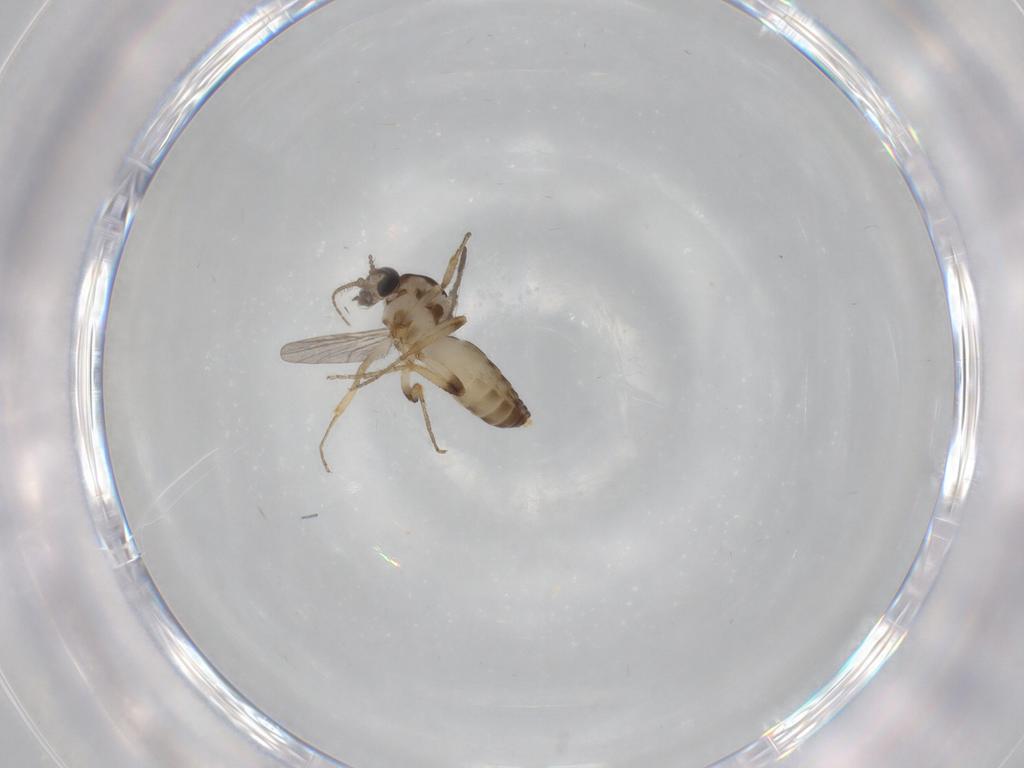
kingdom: Animalia
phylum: Arthropoda
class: Insecta
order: Diptera
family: Ceratopogonidae
